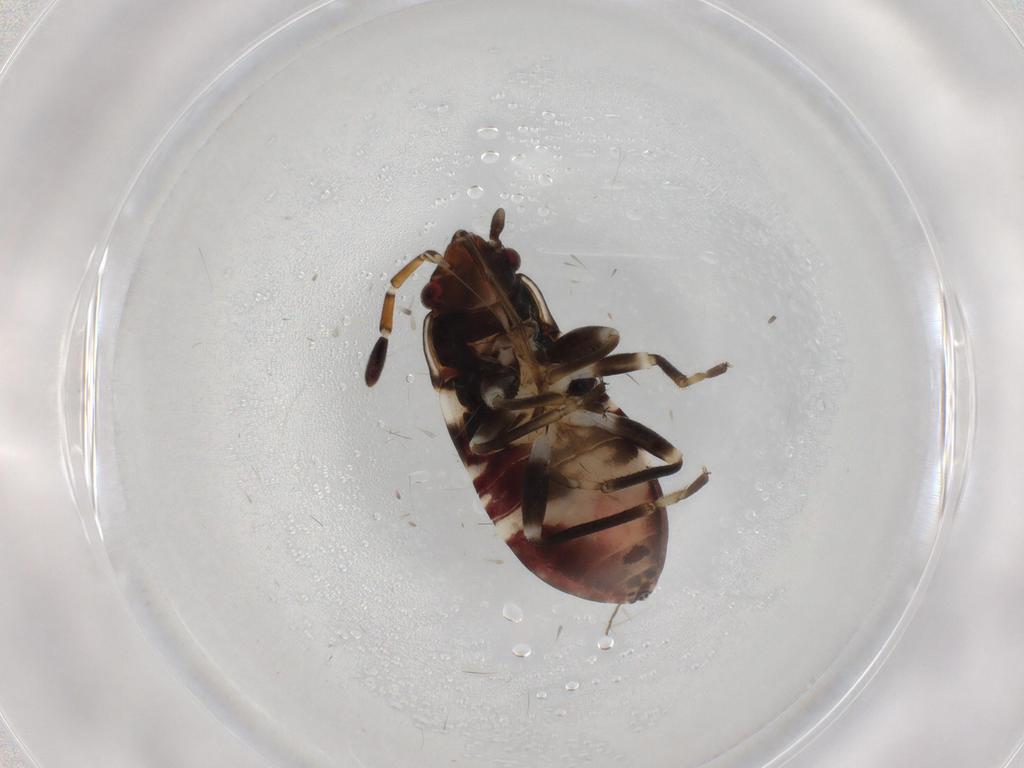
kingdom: Animalia
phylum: Arthropoda
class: Insecta
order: Hemiptera
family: Rhyparochromidae
